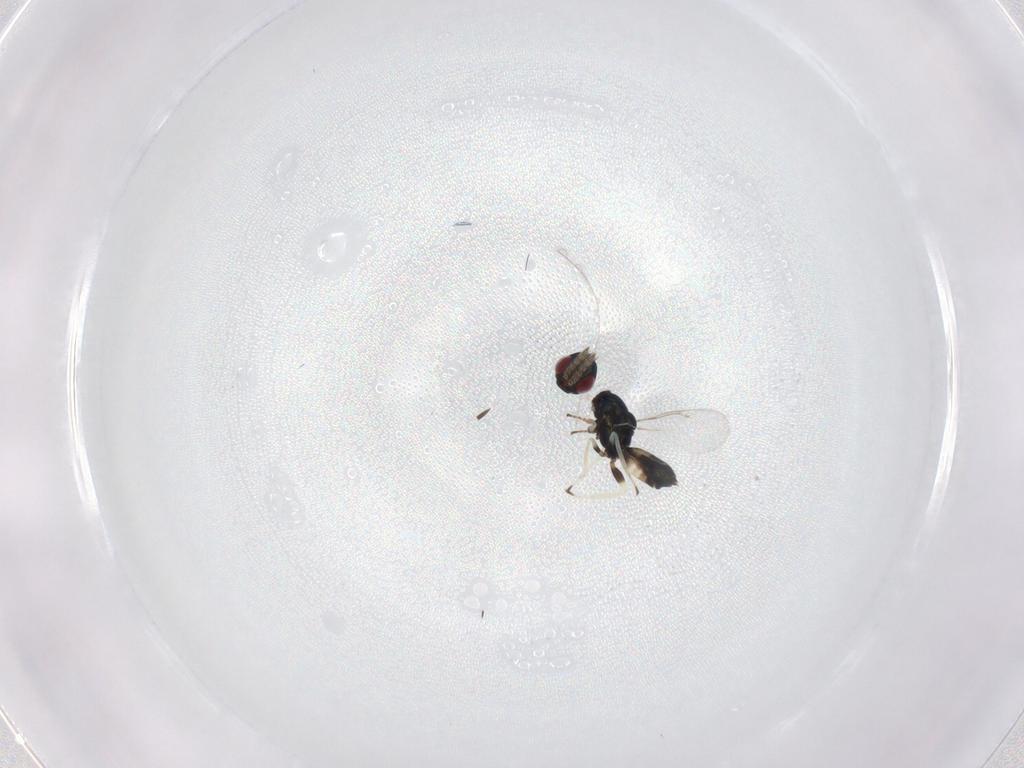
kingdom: Animalia
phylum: Arthropoda
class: Insecta
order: Hymenoptera
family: Eulophidae
